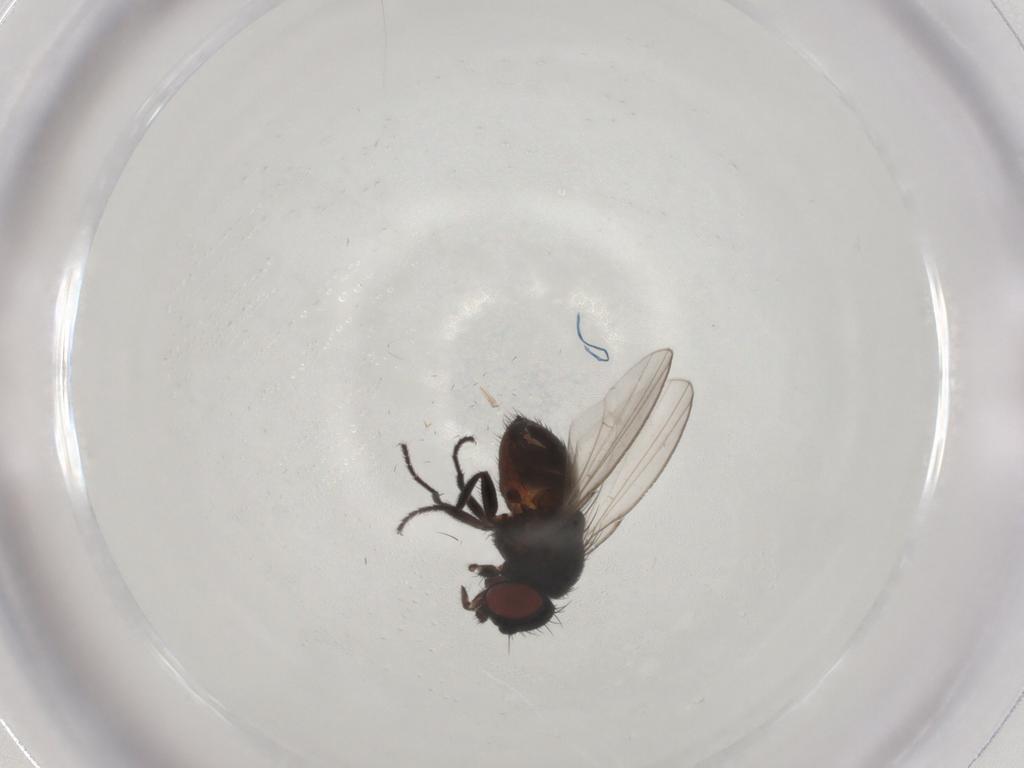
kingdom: Animalia
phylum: Arthropoda
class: Insecta
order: Diptera
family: Milichiidae
